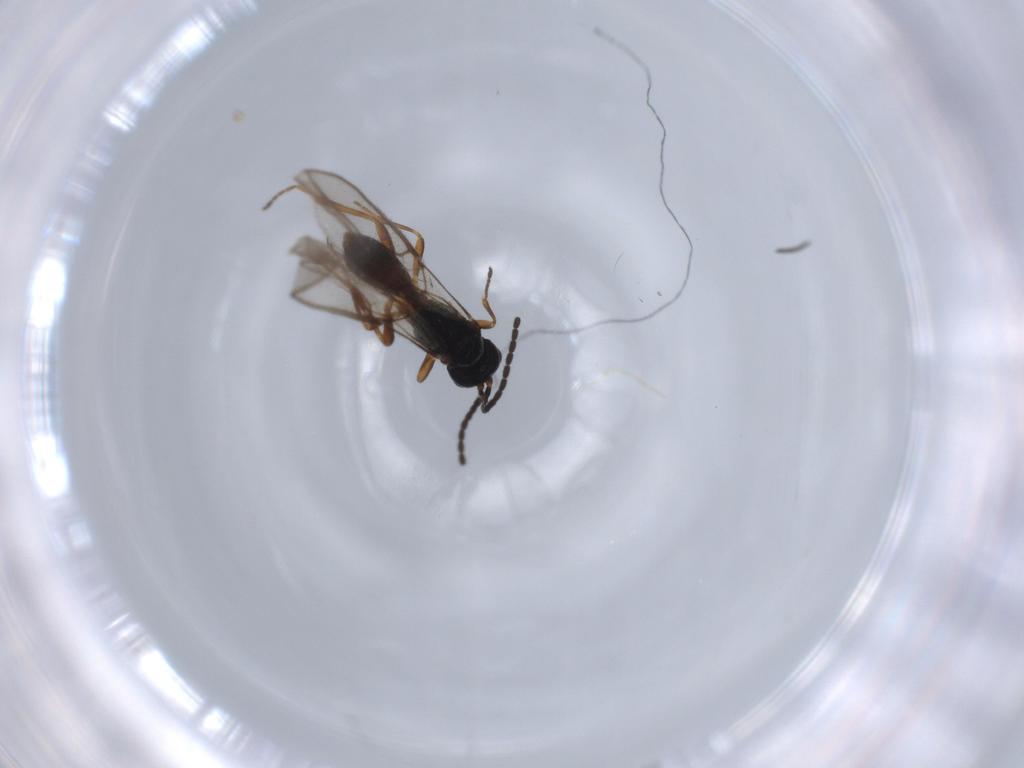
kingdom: Animalia
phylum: Arthropoda
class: Insecta
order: Hymenoptera
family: Braconidae
